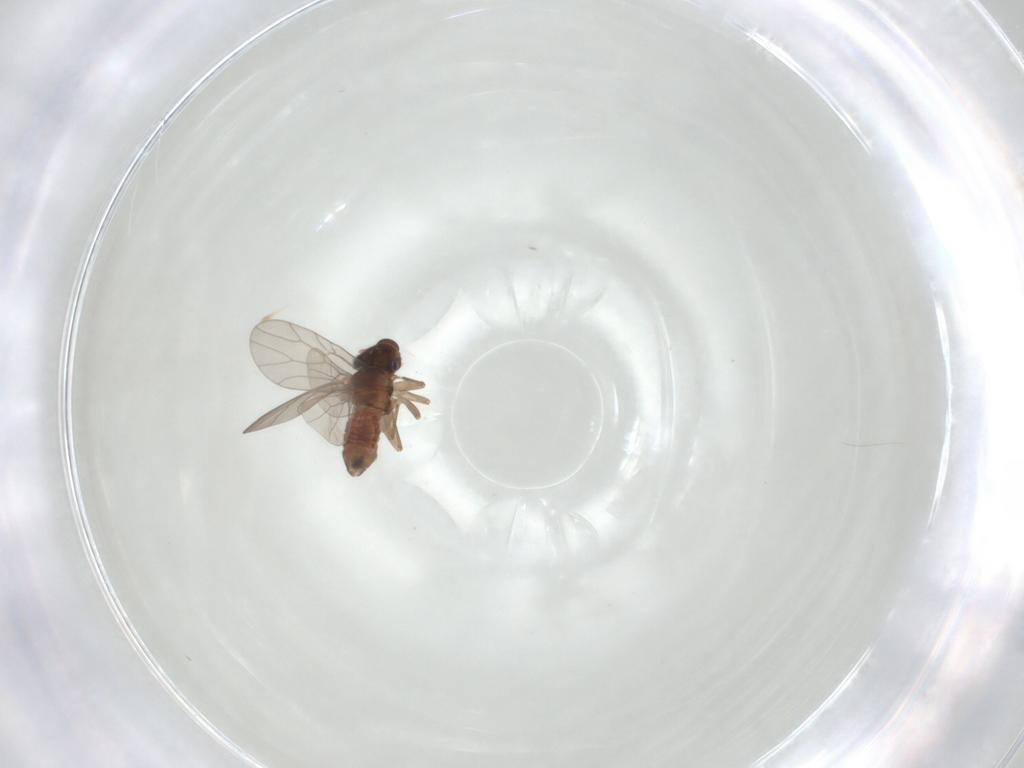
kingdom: Animalia
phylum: Arthropoda
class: Insecta
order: Psocodea
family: Lepidopsocidae
